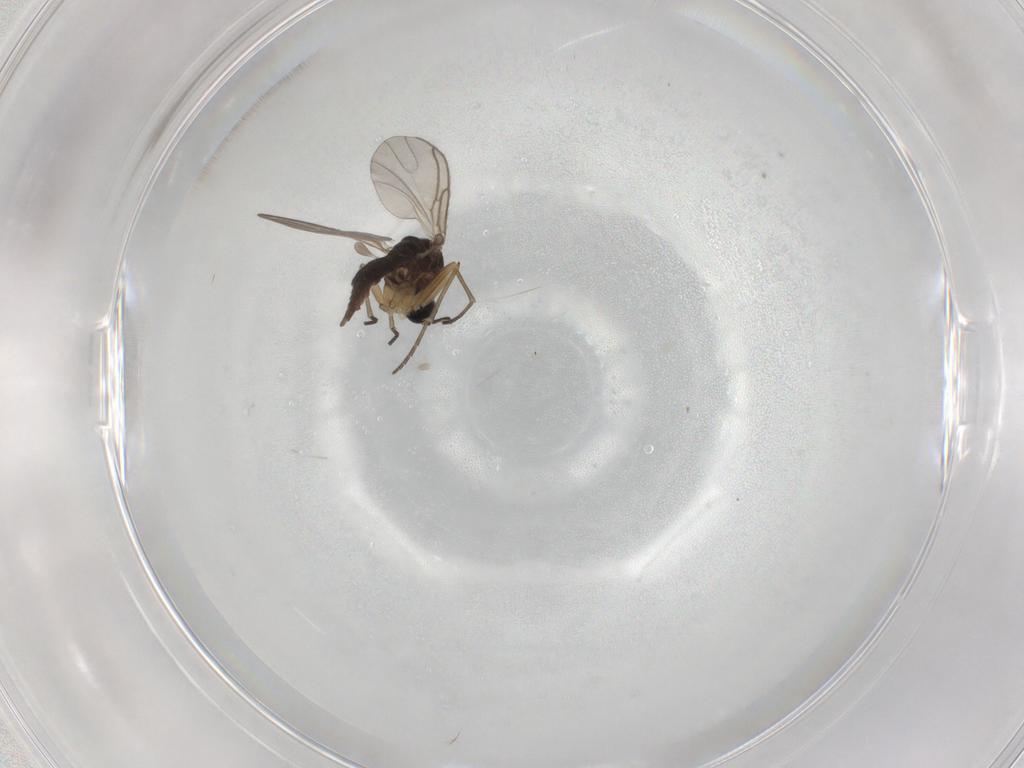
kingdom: Animalia
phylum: Arthropoda
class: Insecta
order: Diptera
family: Sciaridae
